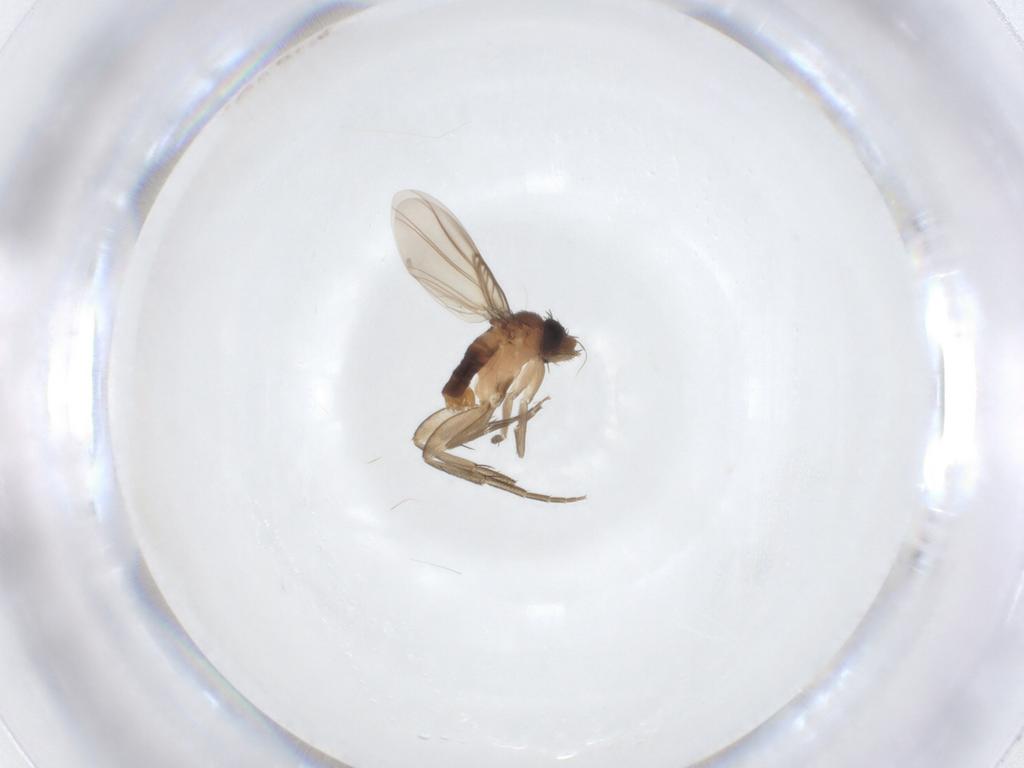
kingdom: Animalia
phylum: Arthropoda
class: Insecta
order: Diptera
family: Phoridae
